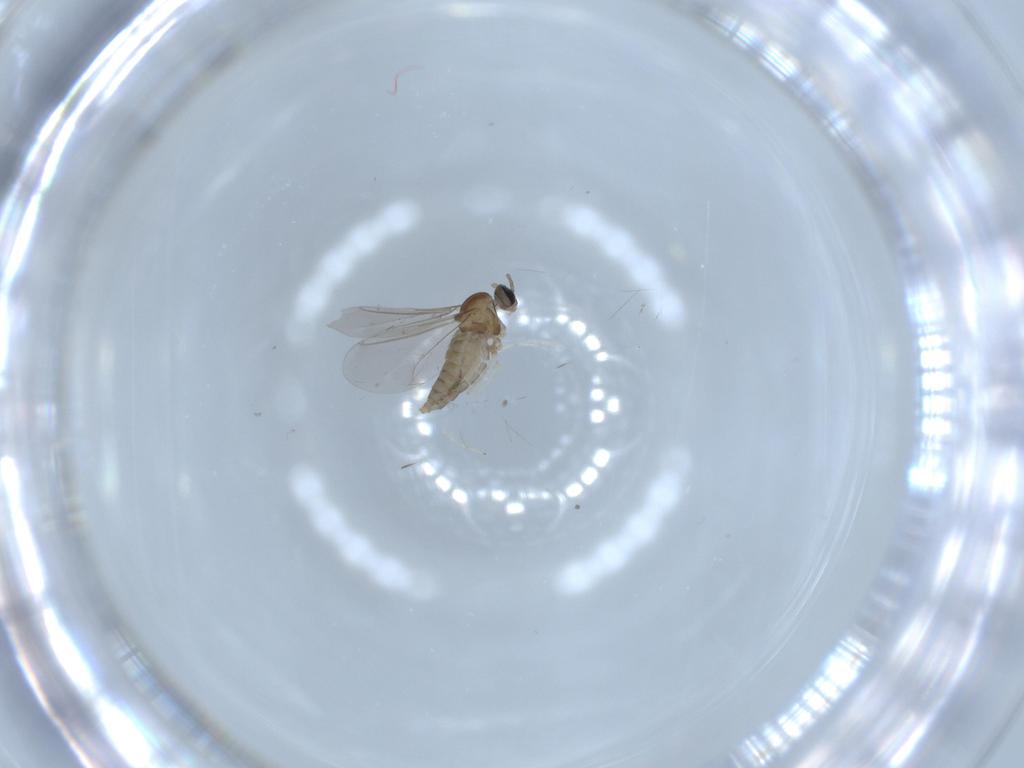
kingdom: Animalia
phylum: Arthropoda
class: Insecta
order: Diptera
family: Cecidomyiidae
